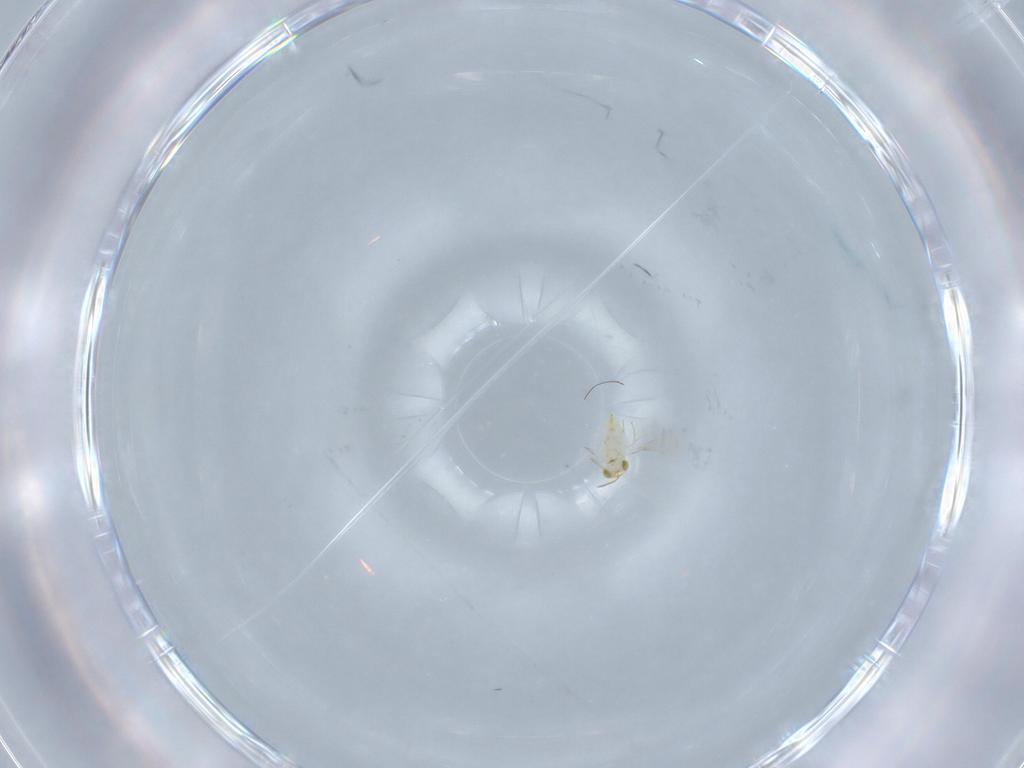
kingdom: Animalia
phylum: Arthropoda
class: Insecta
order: Hymenoptera
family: Aphelinidae
